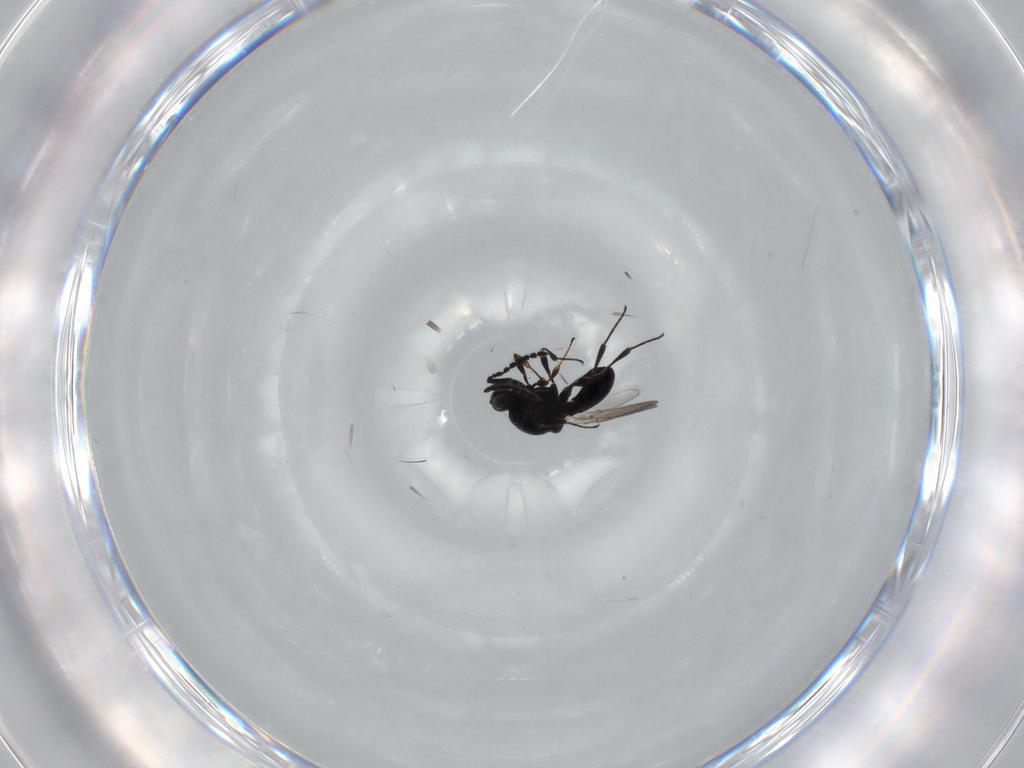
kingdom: Animalia
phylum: Arthropoda
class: Insecta
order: Hymenoptera
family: Platygastridae
